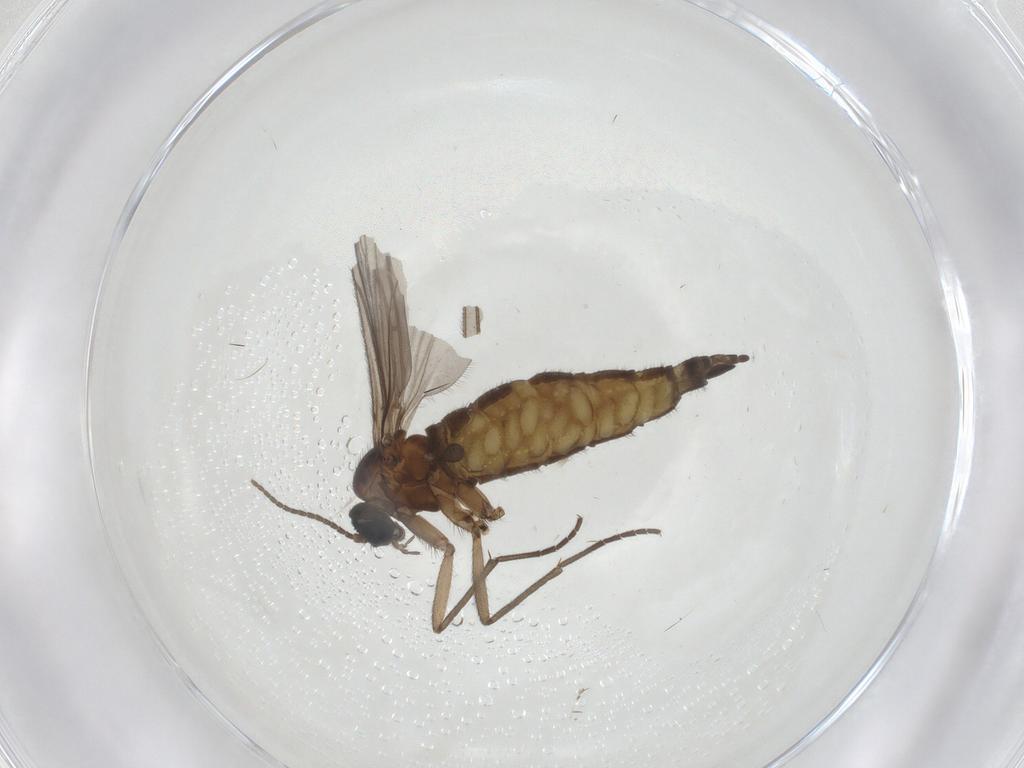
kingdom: Animalia
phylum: Arthropoda
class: Insecta
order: Diptera
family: Sciaridae
